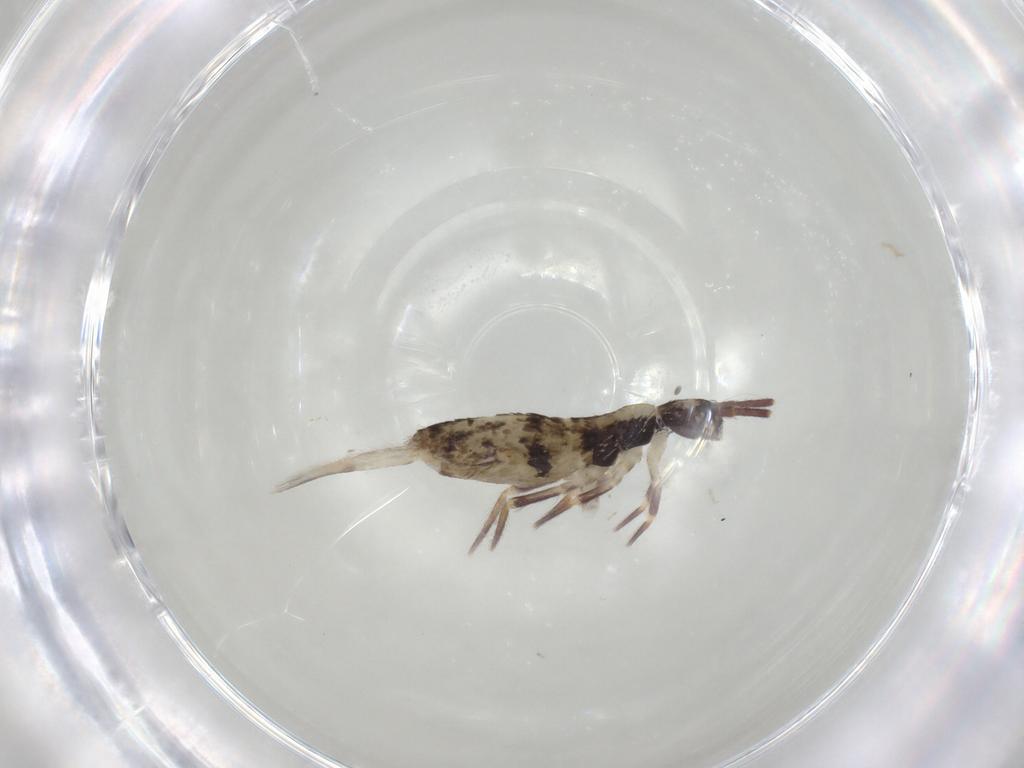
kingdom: Animalia
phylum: Arthropoda
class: Collembola
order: Entomobryomorpha
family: Entomobryidae
